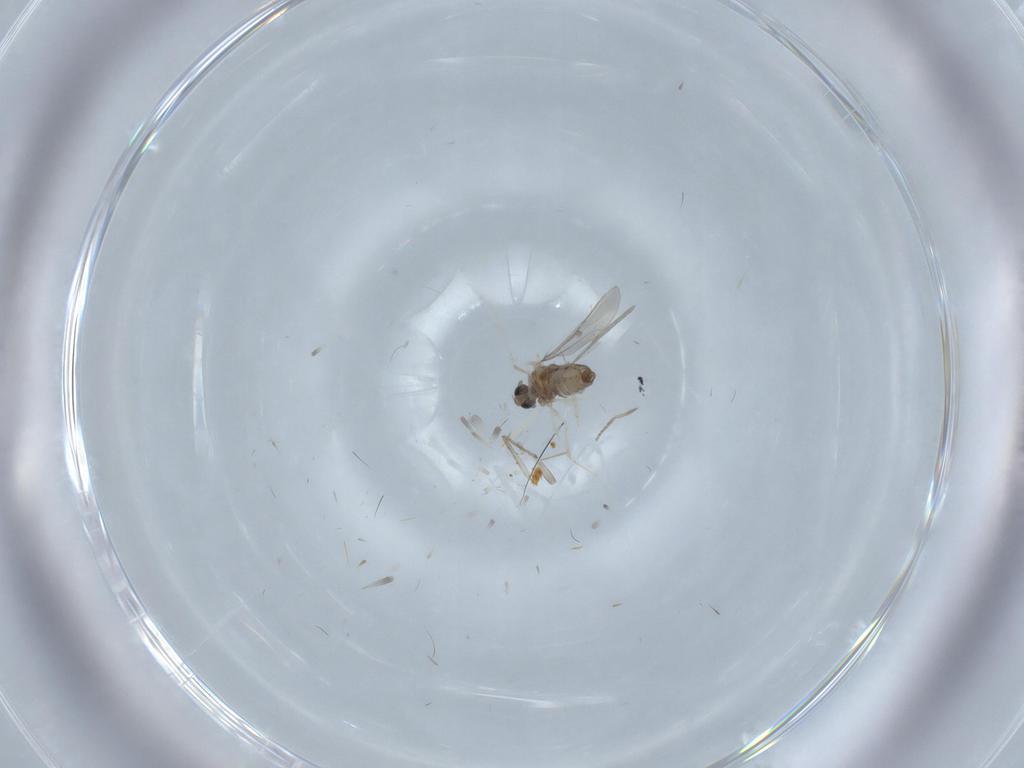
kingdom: Animalia
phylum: Arthropoda
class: Insecta
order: Diptera
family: Cecidomyiidae
